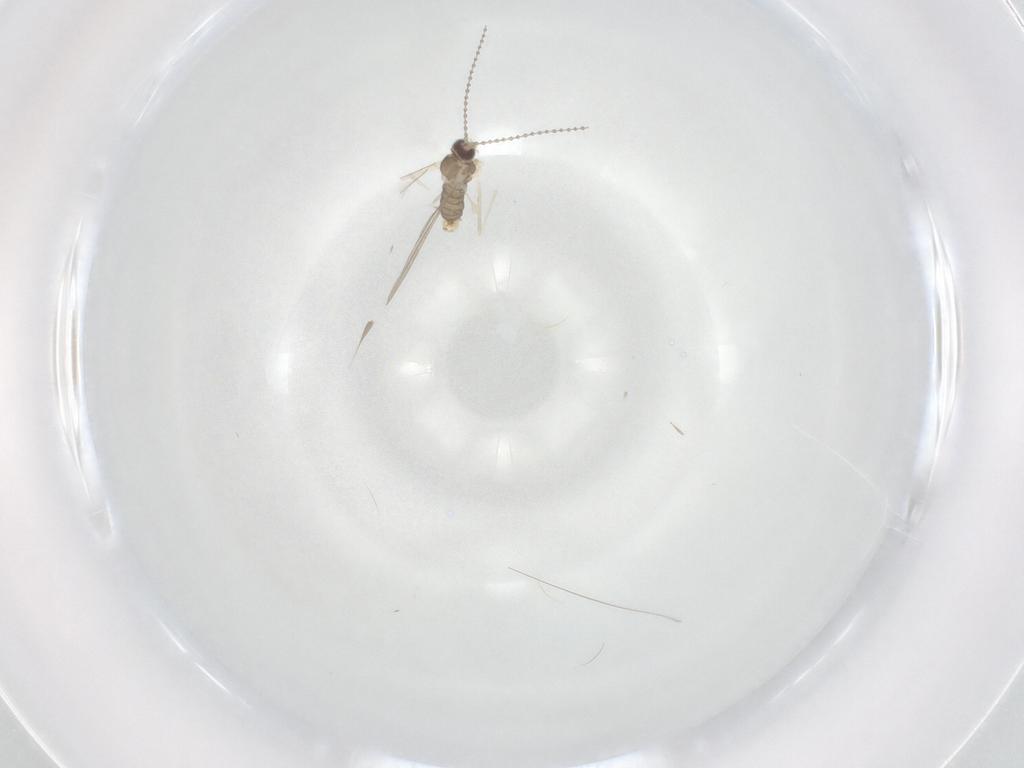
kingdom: Animalia
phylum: Arthropoda
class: Insecta
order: Diptera
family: Cecidomyiidae
